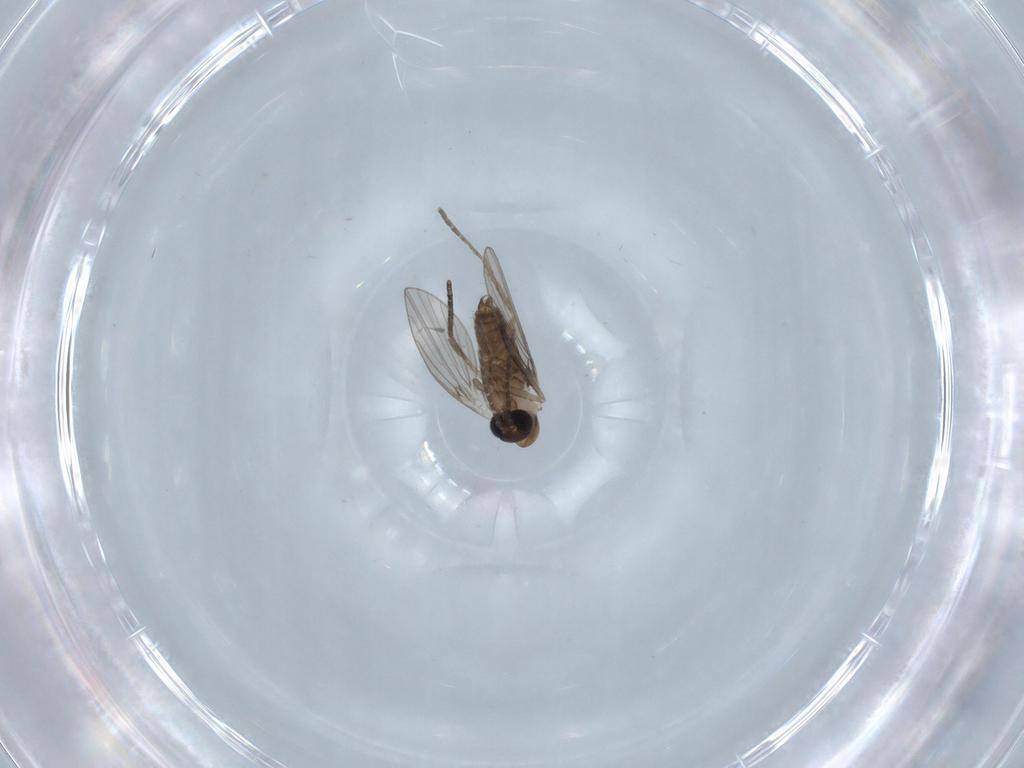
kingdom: Animalia
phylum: Arthropoda
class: Insecta
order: Diptera
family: Psychodidae
